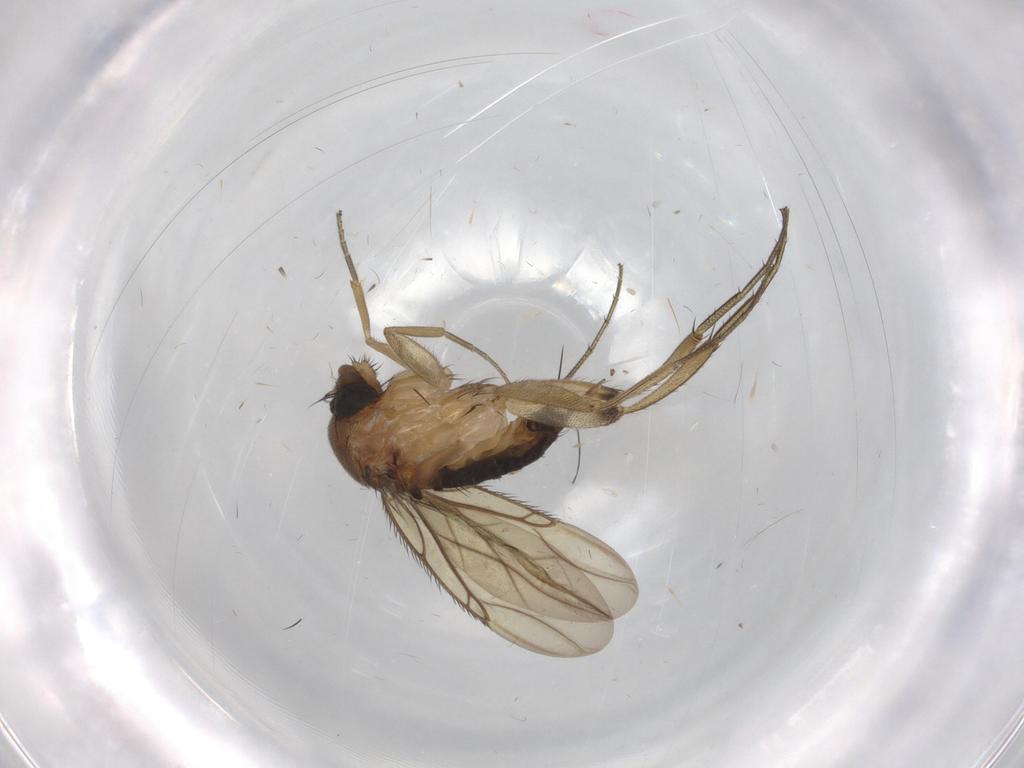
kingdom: Animalia
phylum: Arthropoda
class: Insecta
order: Diptera
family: Phoridae
